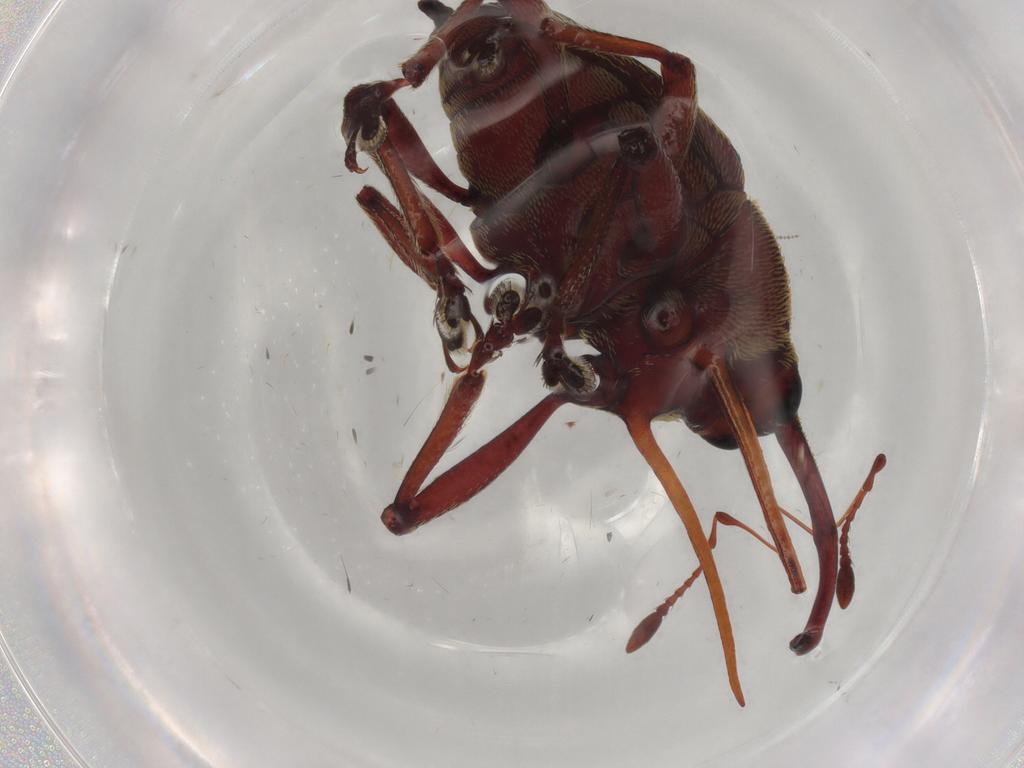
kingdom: Animalia
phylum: Arthropoda
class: Insecta
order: Coleoptera
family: Curculionidae
